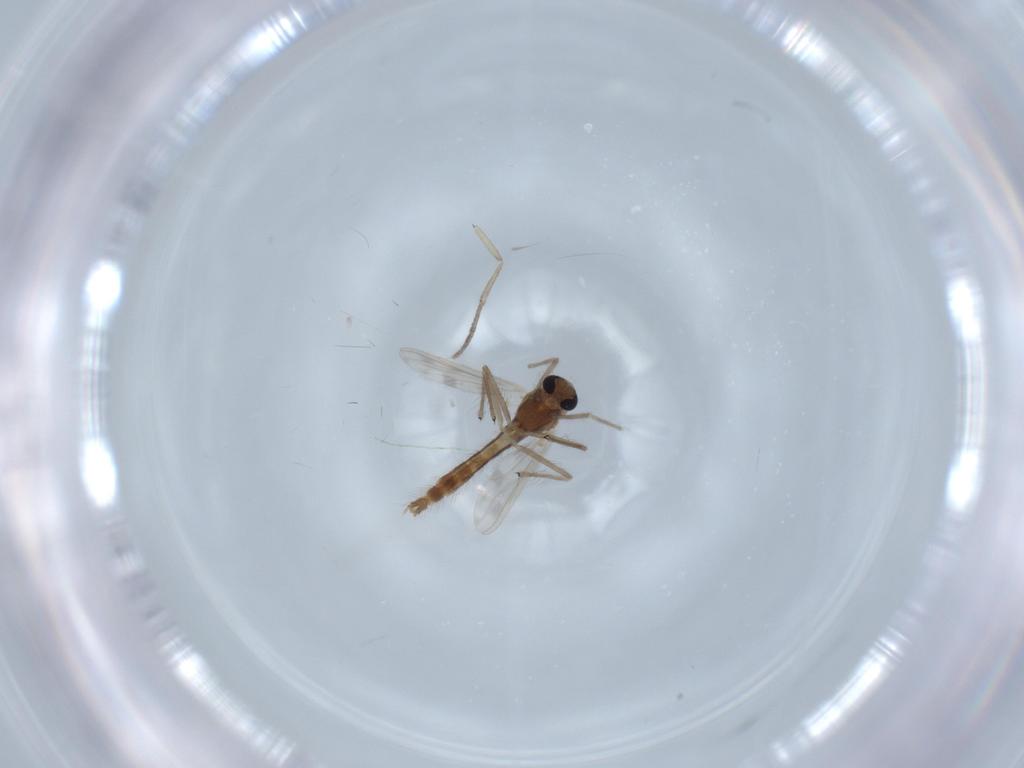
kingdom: Animalia
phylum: Arthropoda
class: Insecta
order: Diptera
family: Chironomidae
